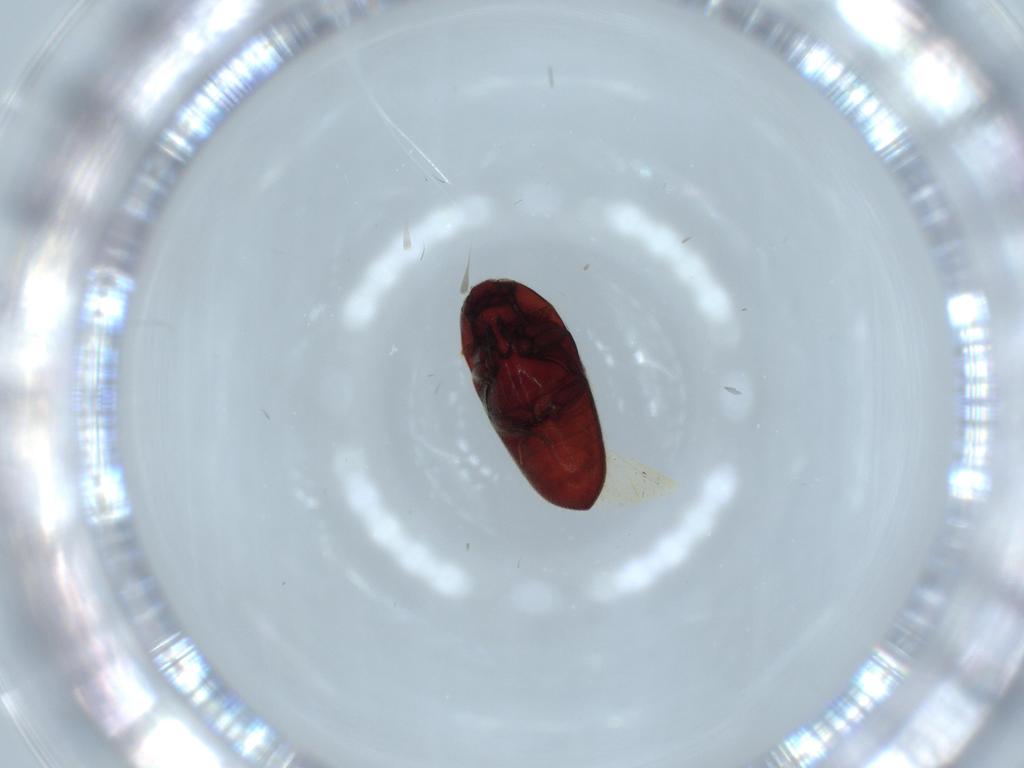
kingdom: Animalia
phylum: Arthropoda
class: Insecta
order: Coleoptera
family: Throscidae
